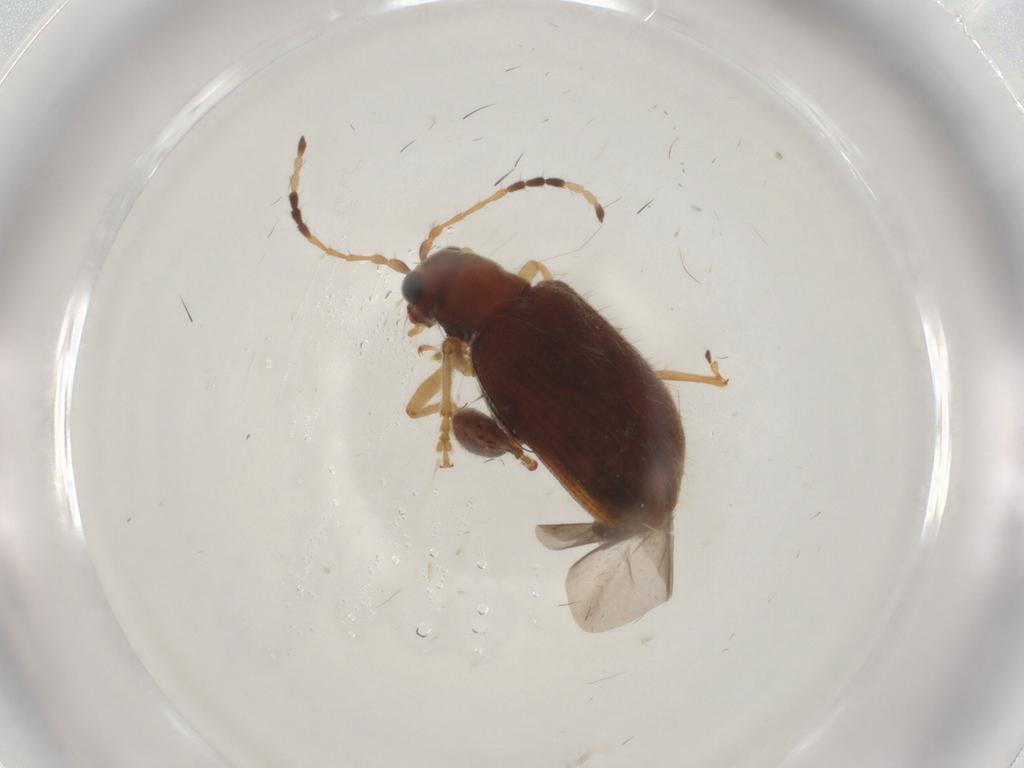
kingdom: Animalia
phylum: Arthropoda
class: Insecta
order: Coleoptera
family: Chrysomelidae
